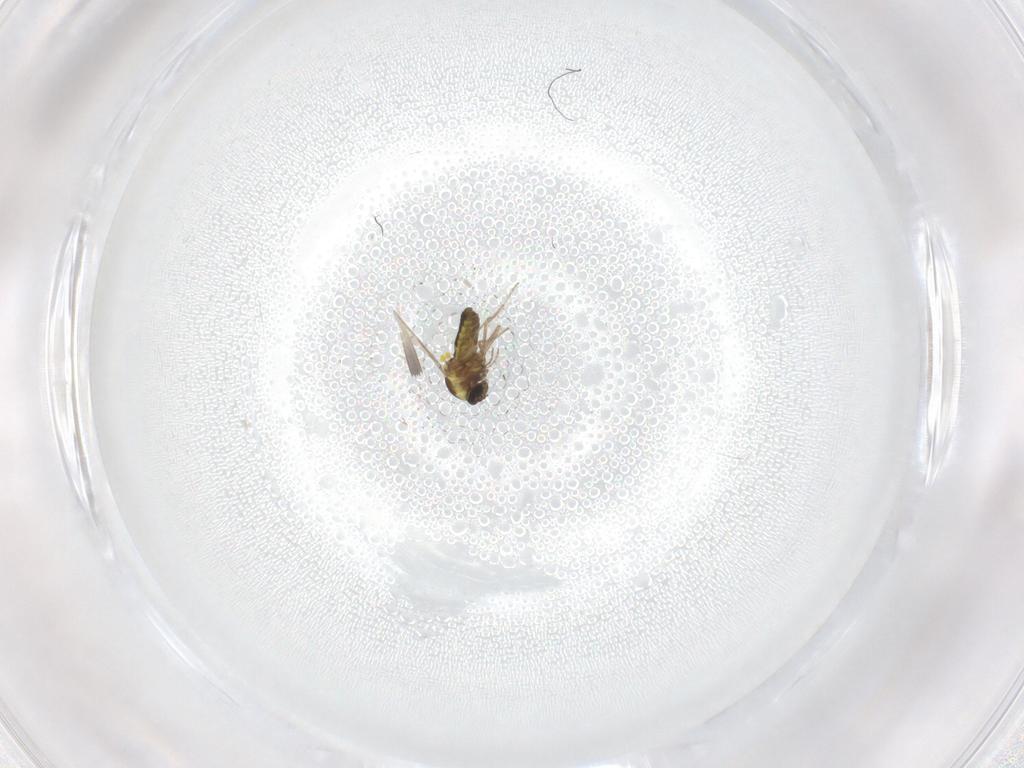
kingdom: Animalia
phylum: Arthropoda
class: Insecta
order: Diptera
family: Ceratopogonidae
